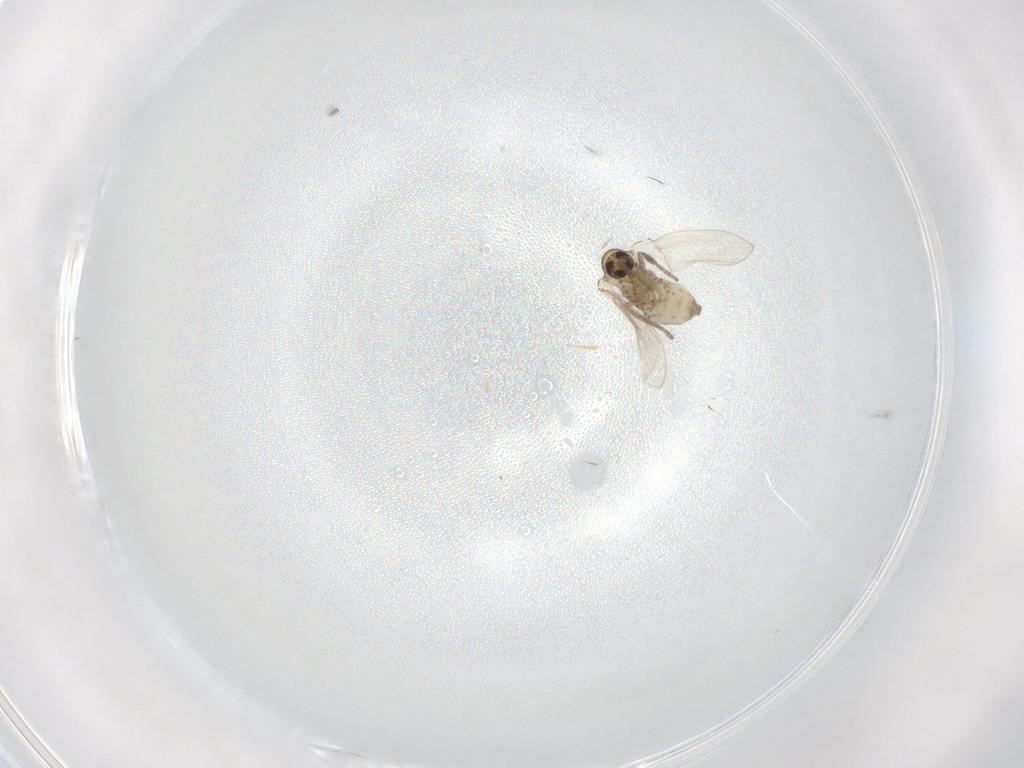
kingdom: Animalia
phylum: Arthropoda
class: Insecta
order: Diptera
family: Psychodidae
